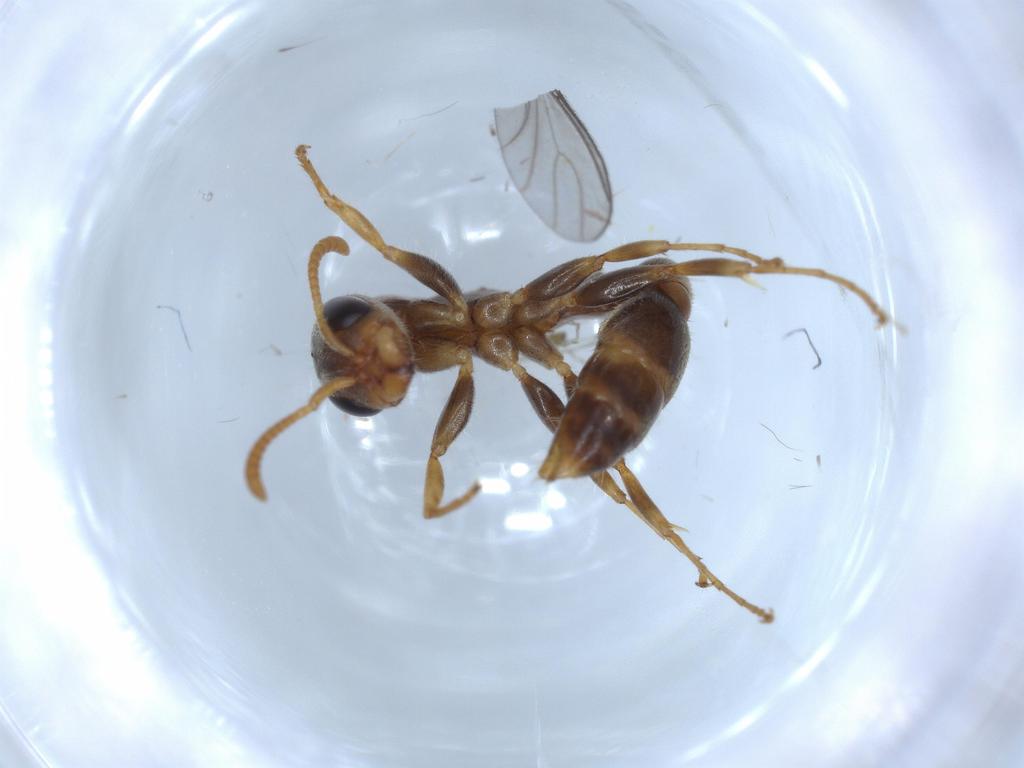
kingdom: Animalia
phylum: Arthropoda
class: Insecta
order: Hymenoptera
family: Formicidae
